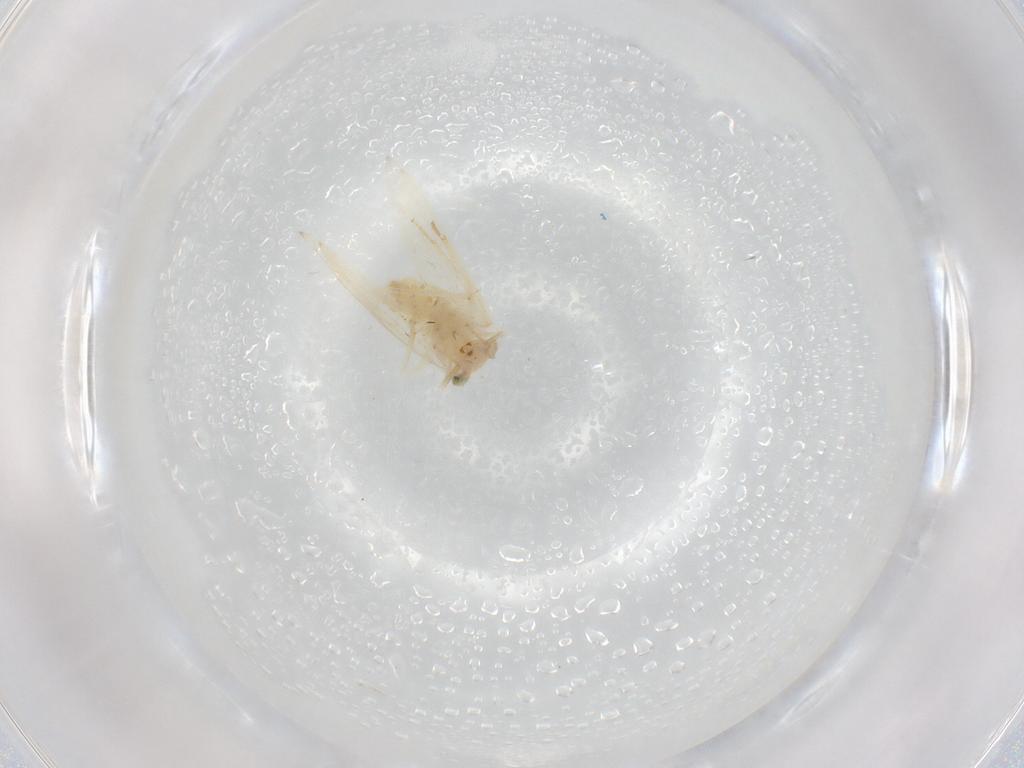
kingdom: Animalia
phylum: Arthropoda
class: Insecta
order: Psocodea
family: Lepidopsocidae
